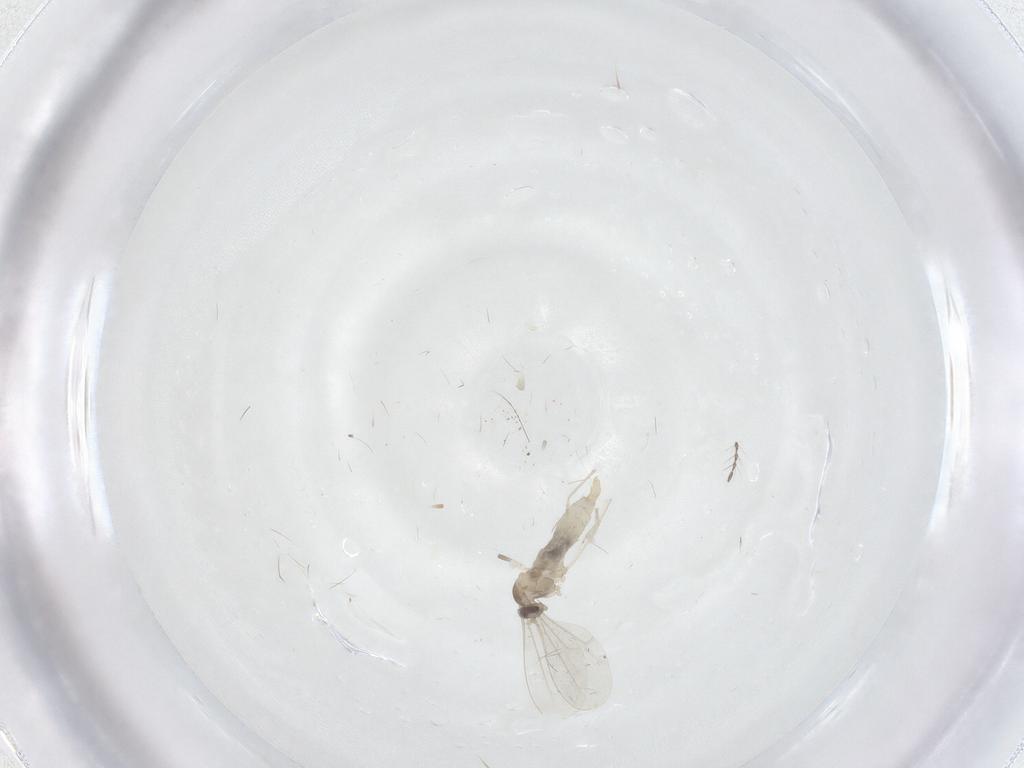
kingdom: Animalia
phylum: Arthropoda
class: Insecta
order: Diptera
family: Cecidomyiidae
